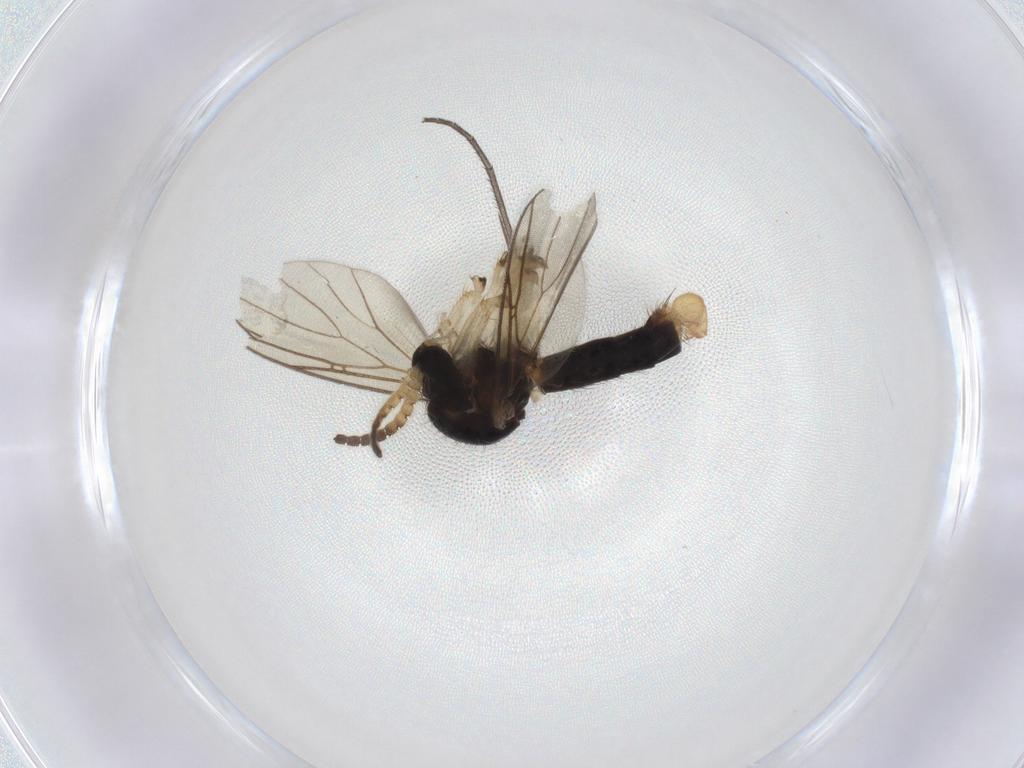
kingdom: Animalia
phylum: Arthropoda
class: Insecta
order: Diptera
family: Mycetophilidae
